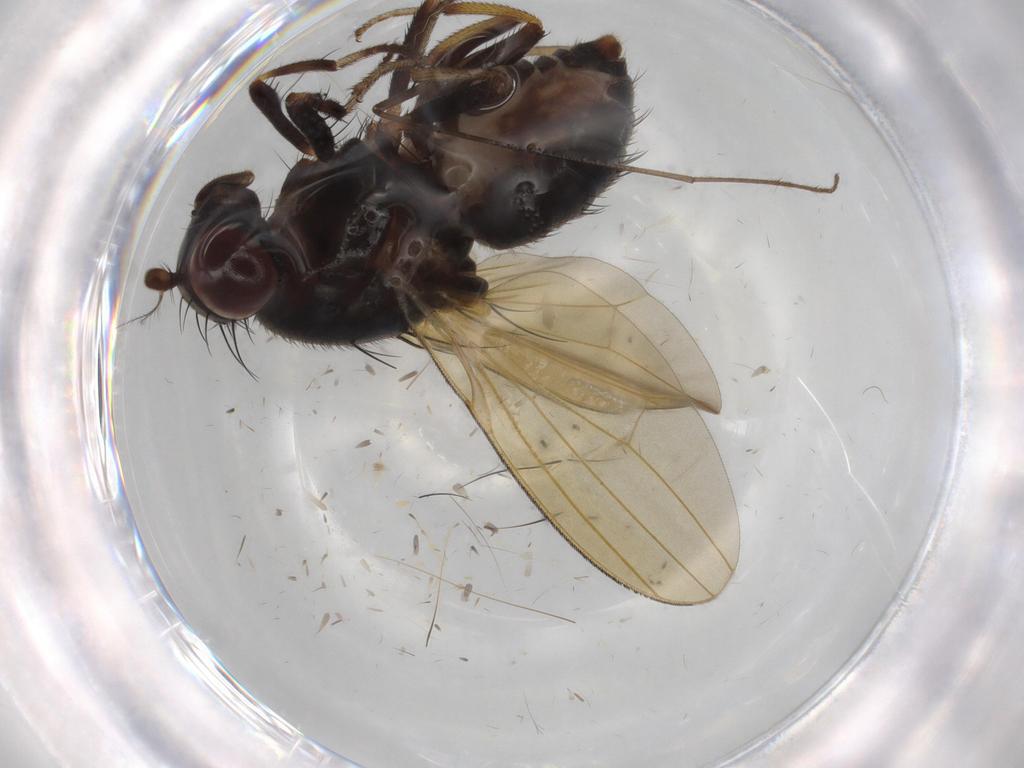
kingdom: Animalia
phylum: Arthropoda
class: Insecta
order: Diptera
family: Limoniidae
